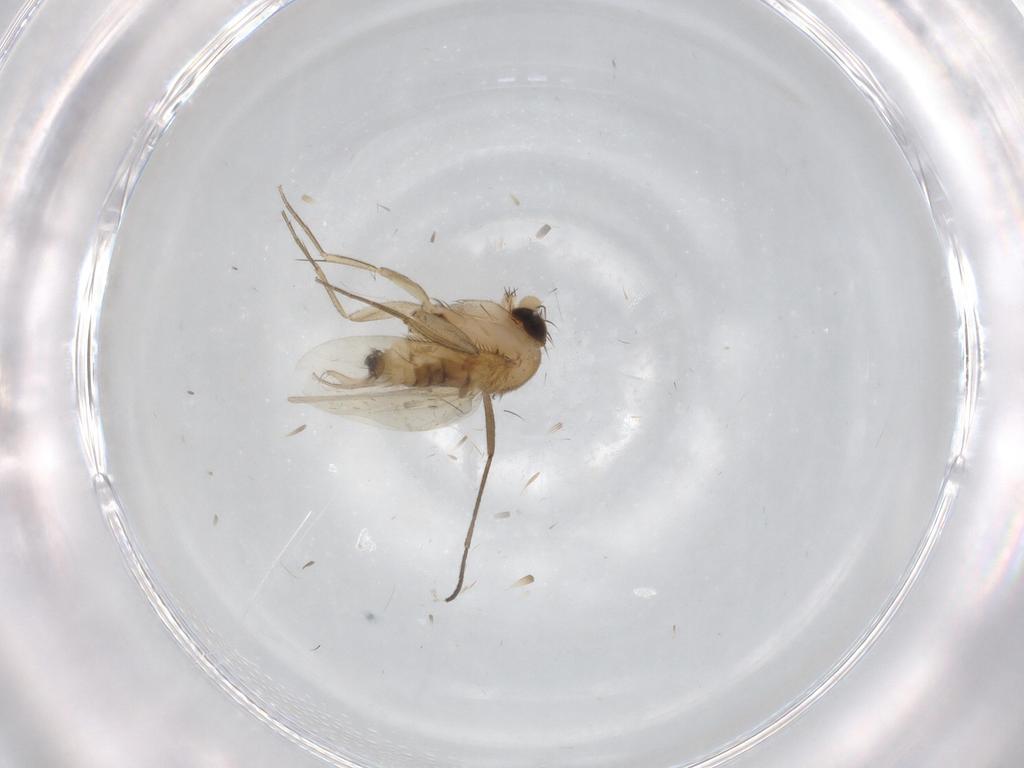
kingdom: Animalia
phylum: Arthropoda
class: Insecta
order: Diptera
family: Phoridae
